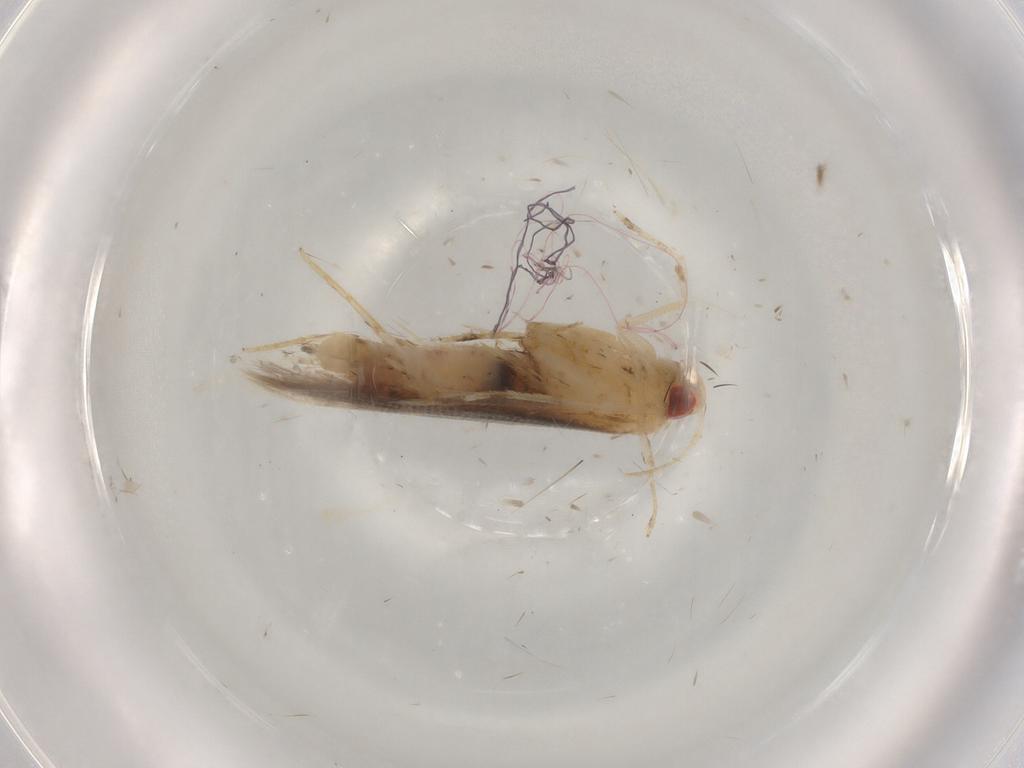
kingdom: Animalia
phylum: Arthropoda
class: Insecta
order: Lepidoptera
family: Cosmopterigidae
